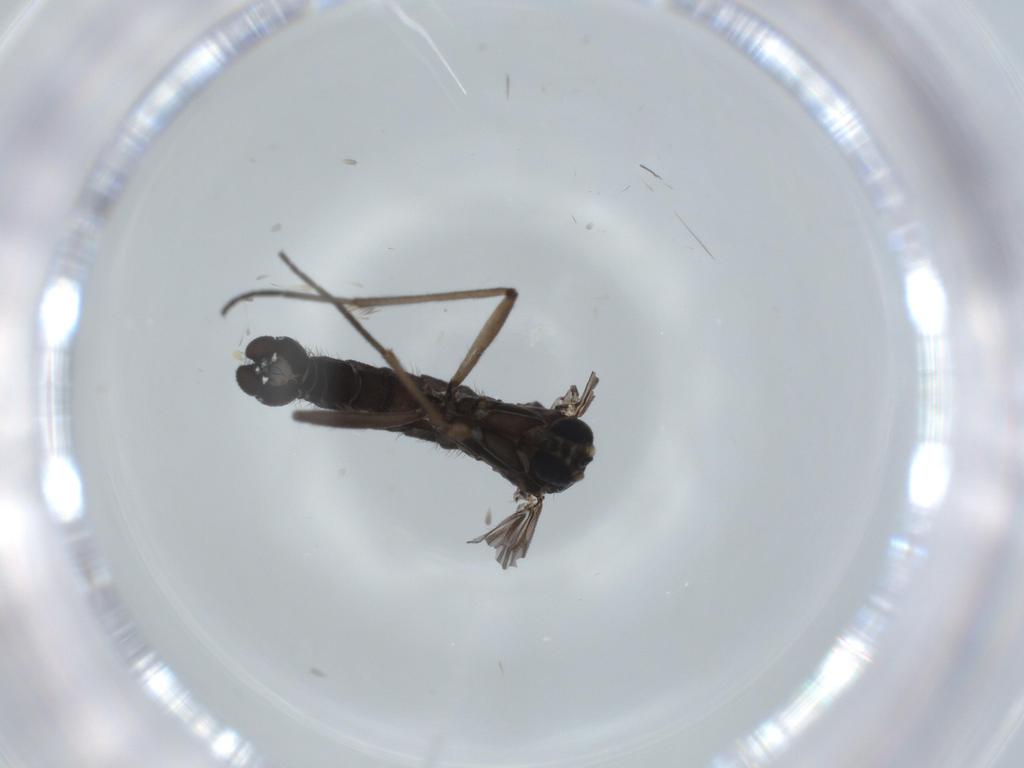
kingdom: Animalia
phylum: Arthropoda
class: Insecta
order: Diptera
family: Sciaridae
